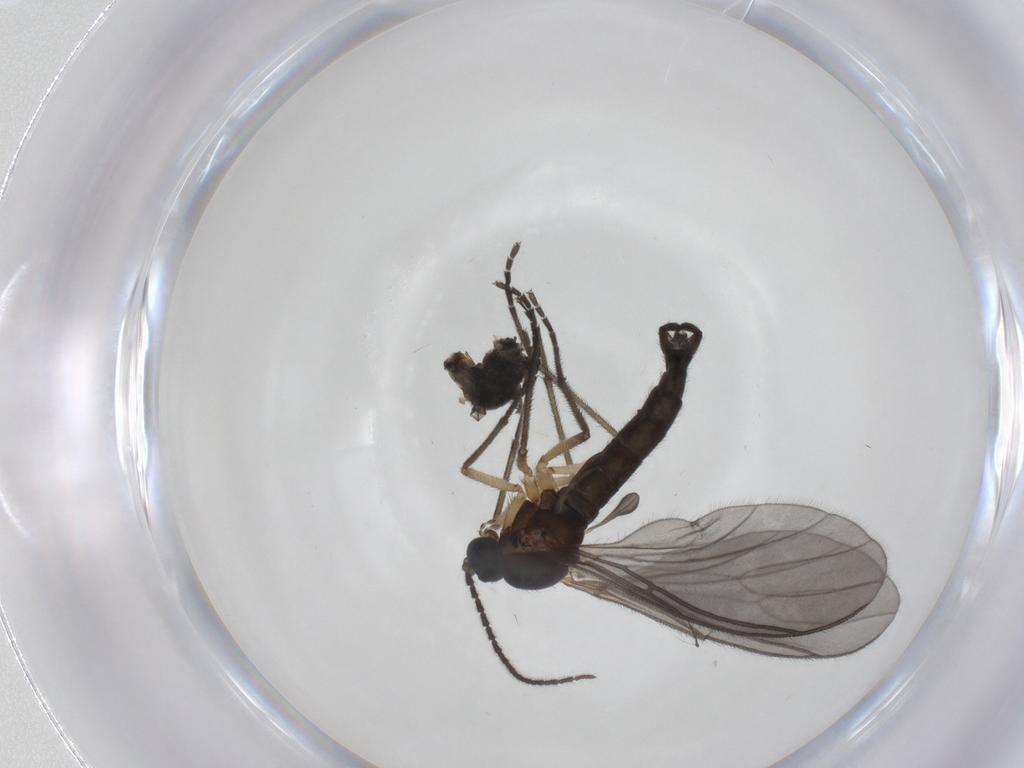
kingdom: Animalia
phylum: Arthropoda
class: Insecta
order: Diptera
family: Sciaridae
